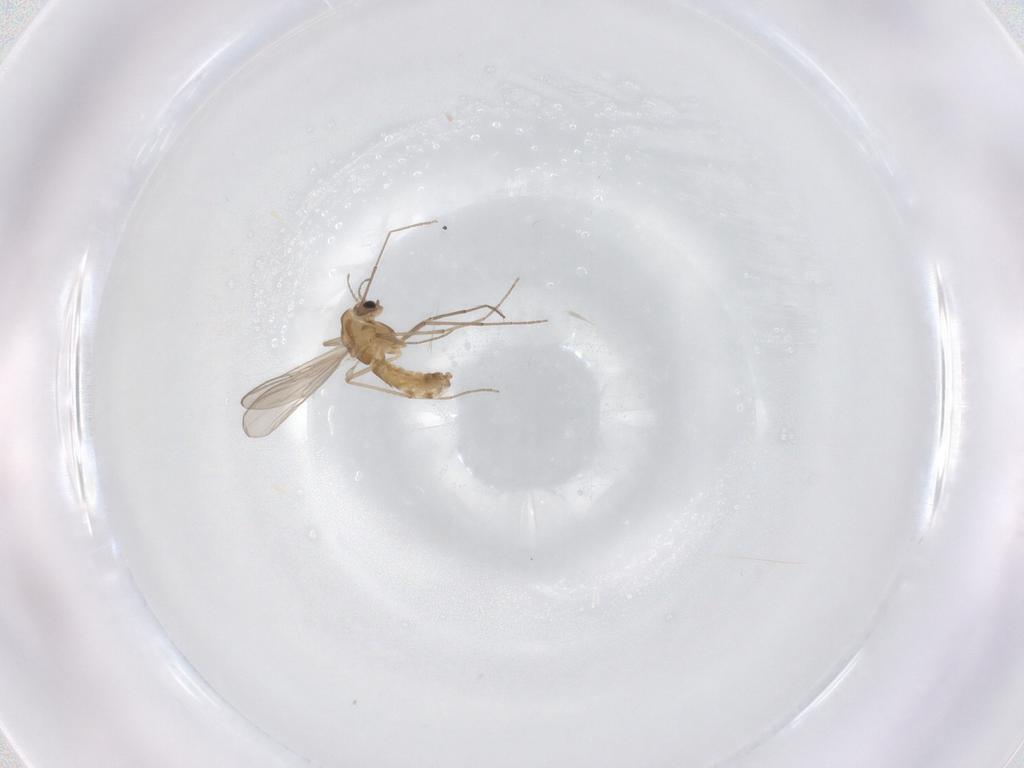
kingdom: Animalia
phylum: Arthropoda
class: Insecta
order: Diptera
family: Chironomidae
